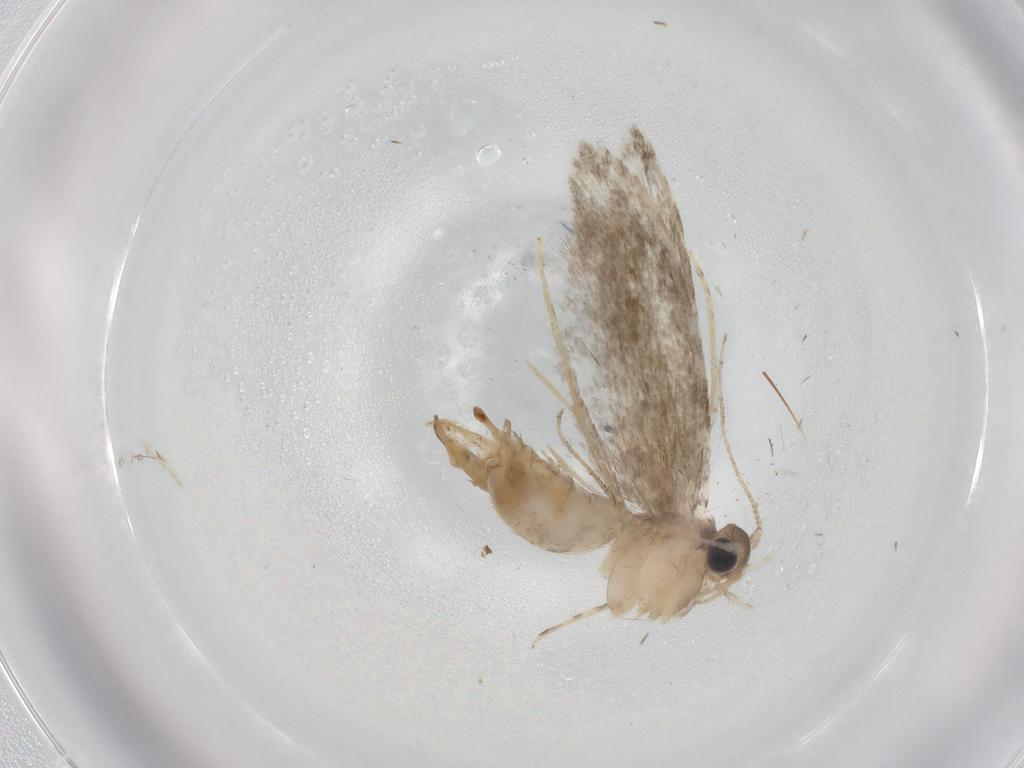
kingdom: Animalia
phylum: Arthropoda
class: Insecta
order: Lepidoptera
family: Tineidae
